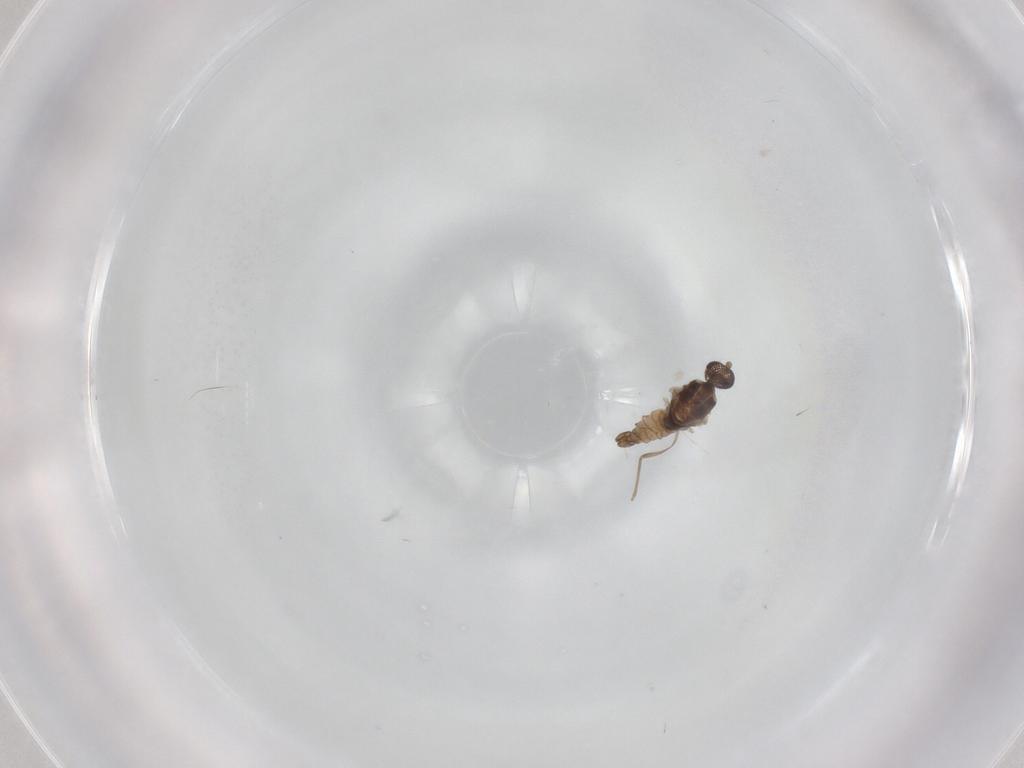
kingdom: Animalia
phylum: Arthropoda
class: Insecta
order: Diptera
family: Cecidomyiidae
